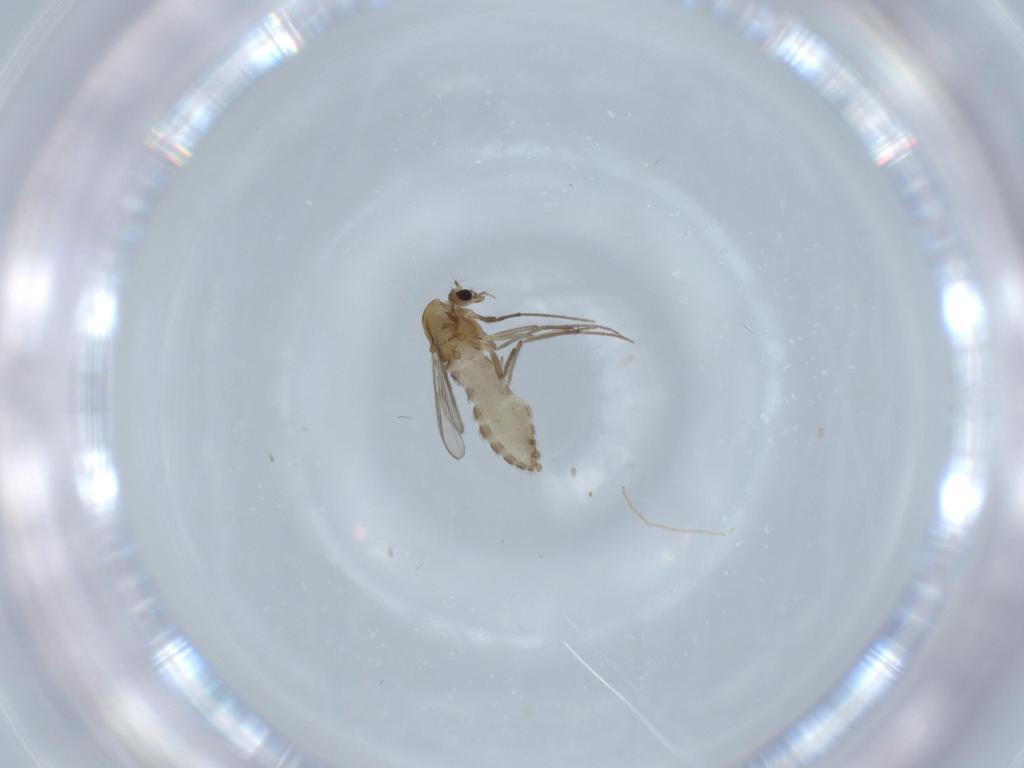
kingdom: Animalia
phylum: Arthropoda
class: Insecta
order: Diptera
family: Chironomidae
